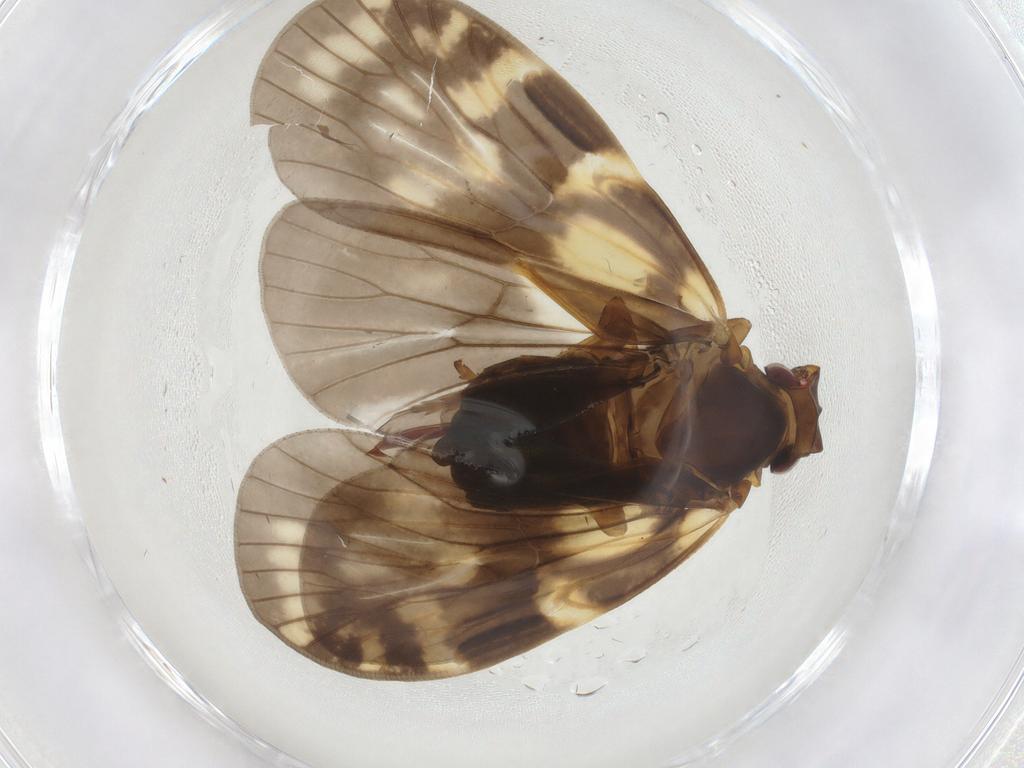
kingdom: Animalia
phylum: Arthropoda
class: Insecta
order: Hemiptera
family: Cixiidae
